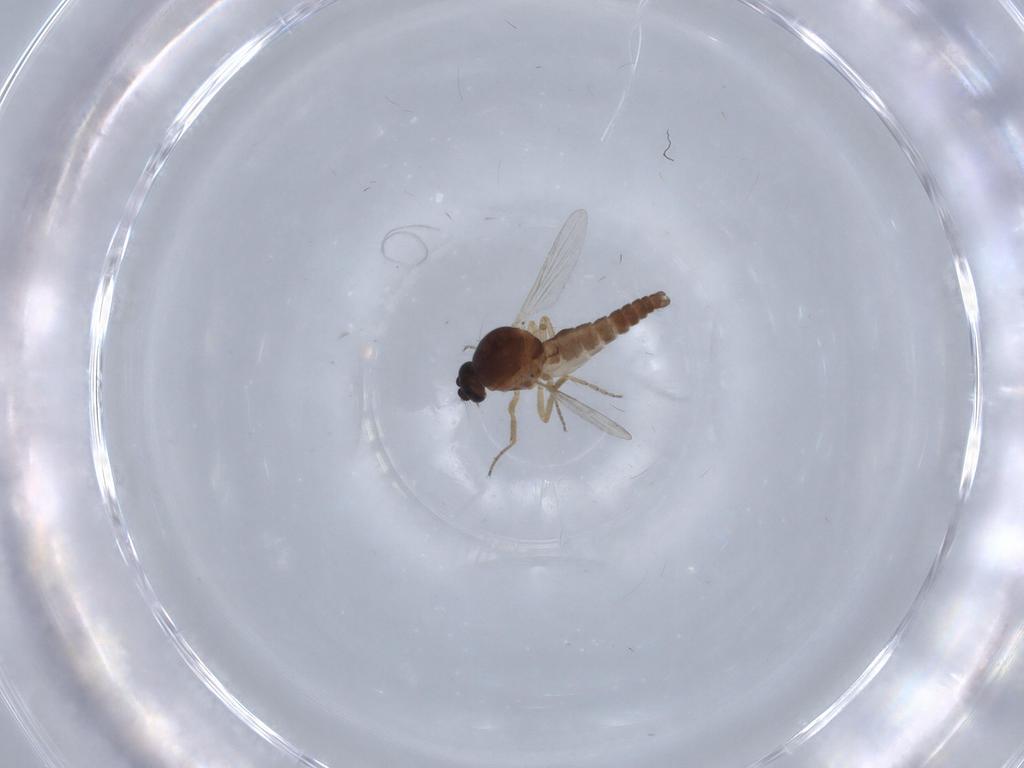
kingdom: Animalia
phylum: Arthropoda
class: Insecta
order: Diptera
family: Ceratopogonidae
